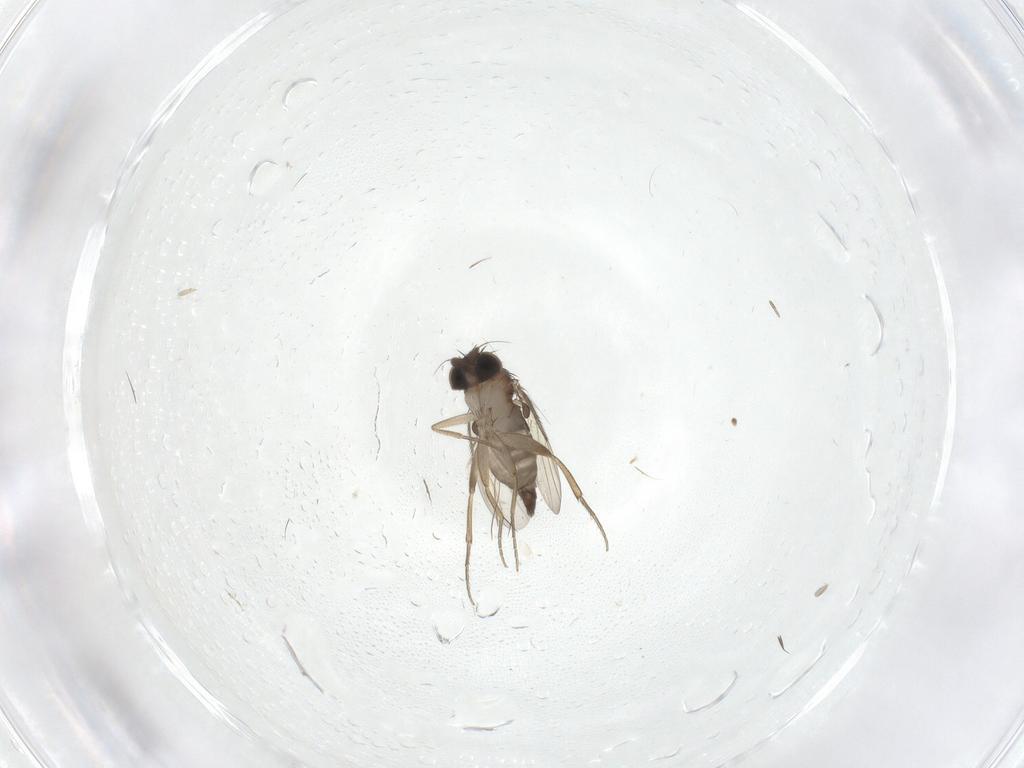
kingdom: Animalia
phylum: Arthropoda
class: Insecta
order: Diptera
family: Phoridae
